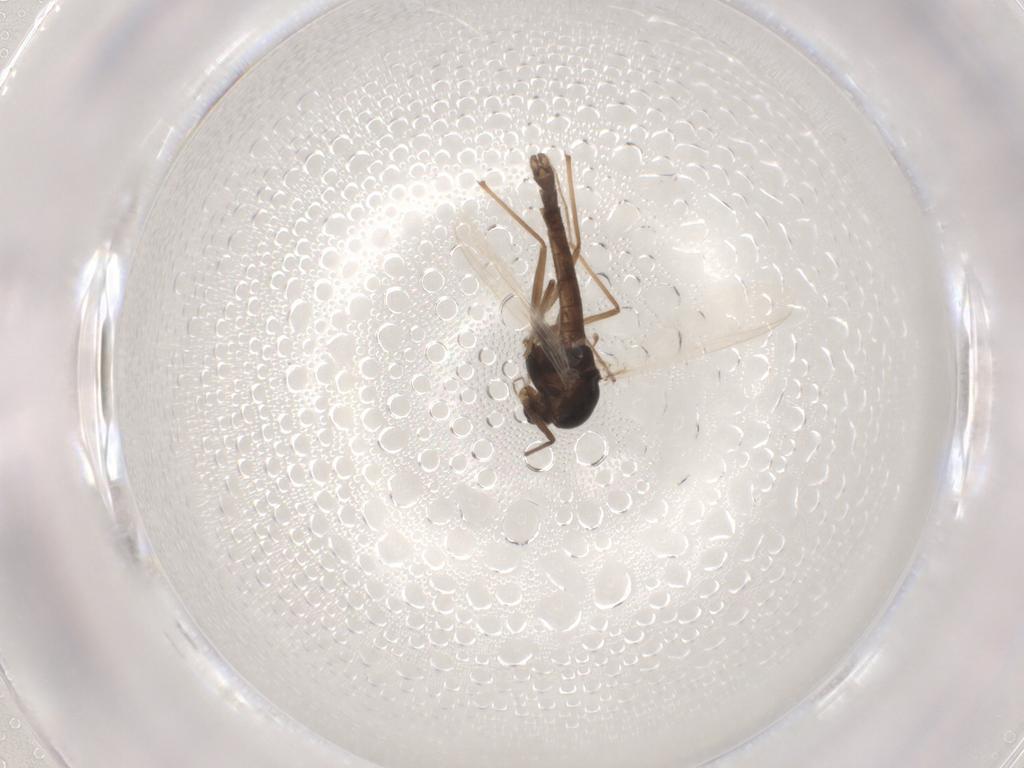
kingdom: Animalia
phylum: Arthropoda
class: Insecta
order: Diptera
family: Chironomidae
